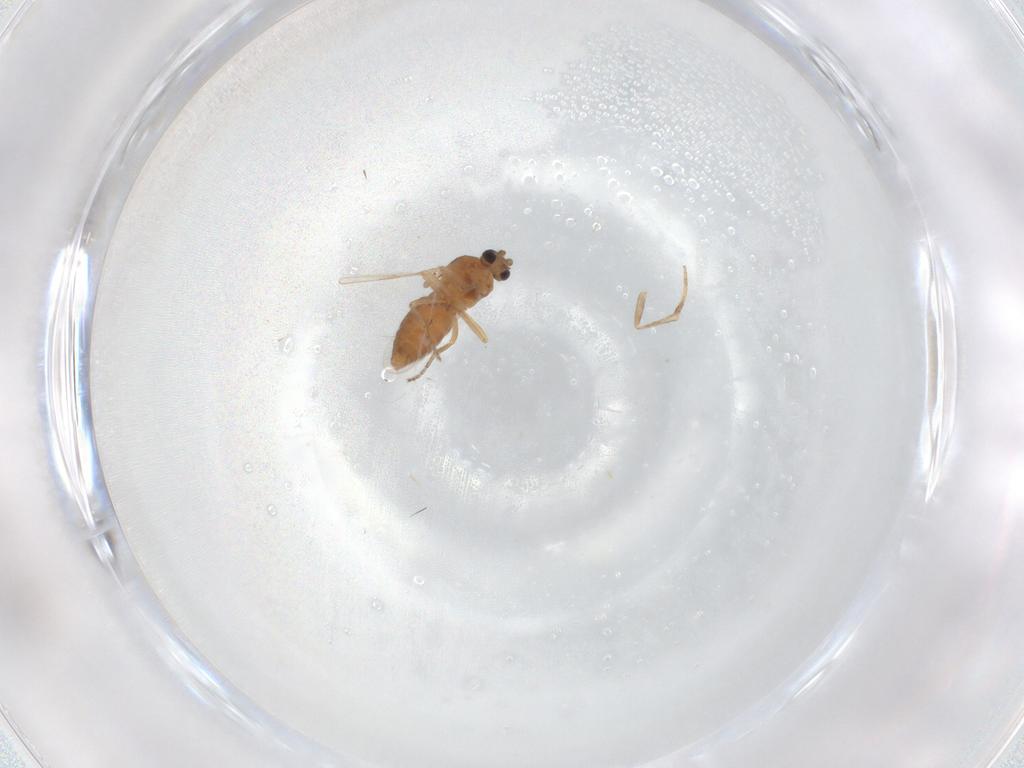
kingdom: Animalia
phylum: Arthropoda
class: Insecta
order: Diptera
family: Ceratopogonidae
